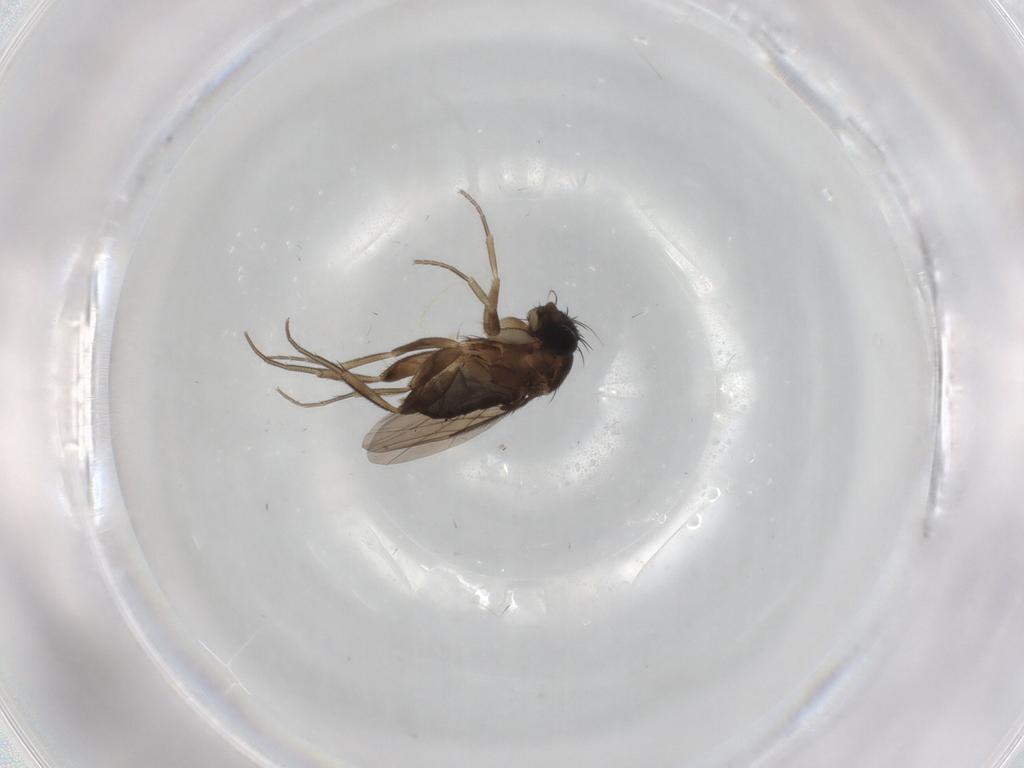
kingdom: Animalia
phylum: Arthropoda
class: Insecta
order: Diptera
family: Phoridae
